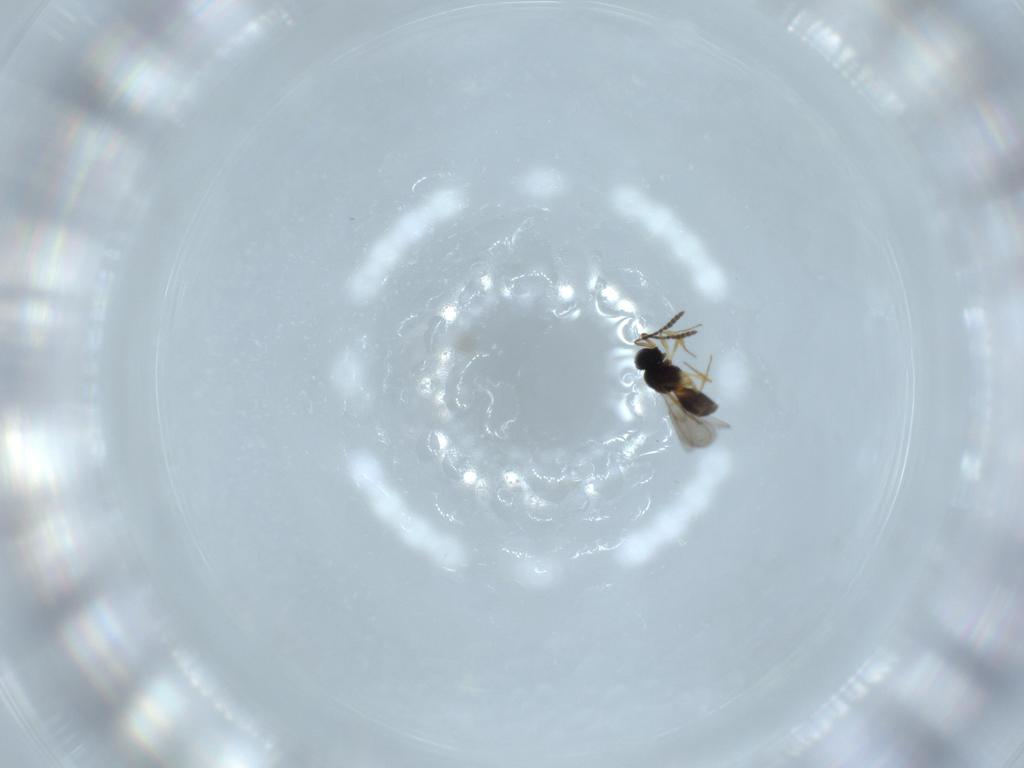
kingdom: Animalia
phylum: Arthropoda
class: Insecta
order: Hymenoptera
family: Scelionidae
